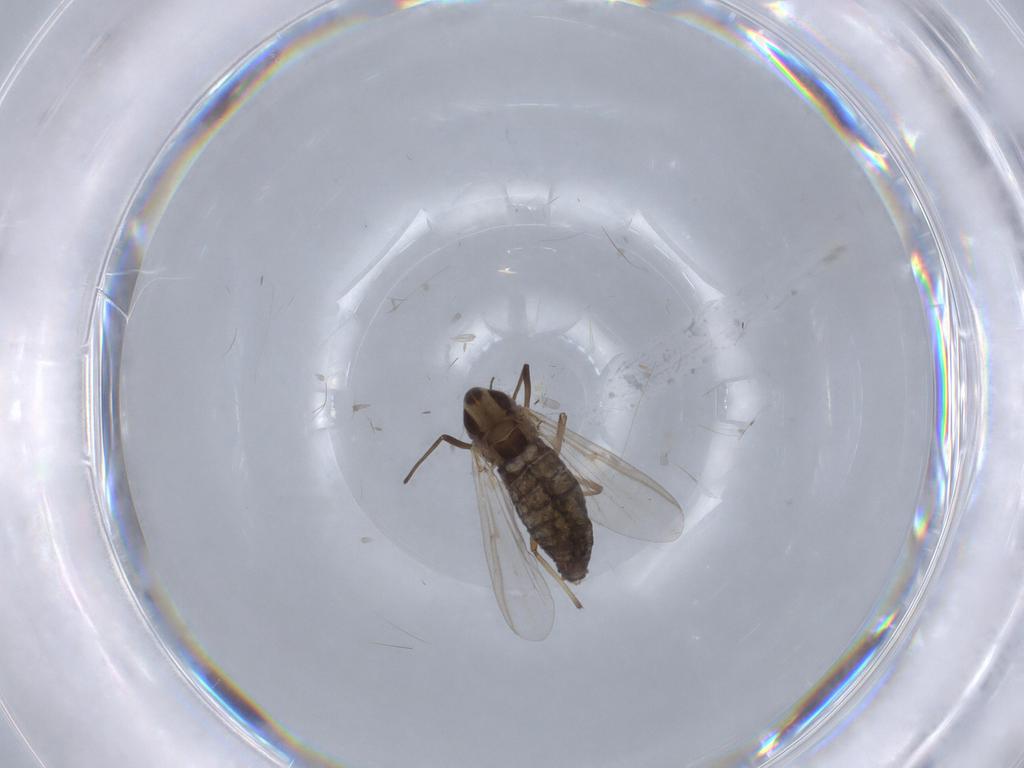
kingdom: Animalia
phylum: Arthropoda
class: Insecta
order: Diptera
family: Chironomidae
